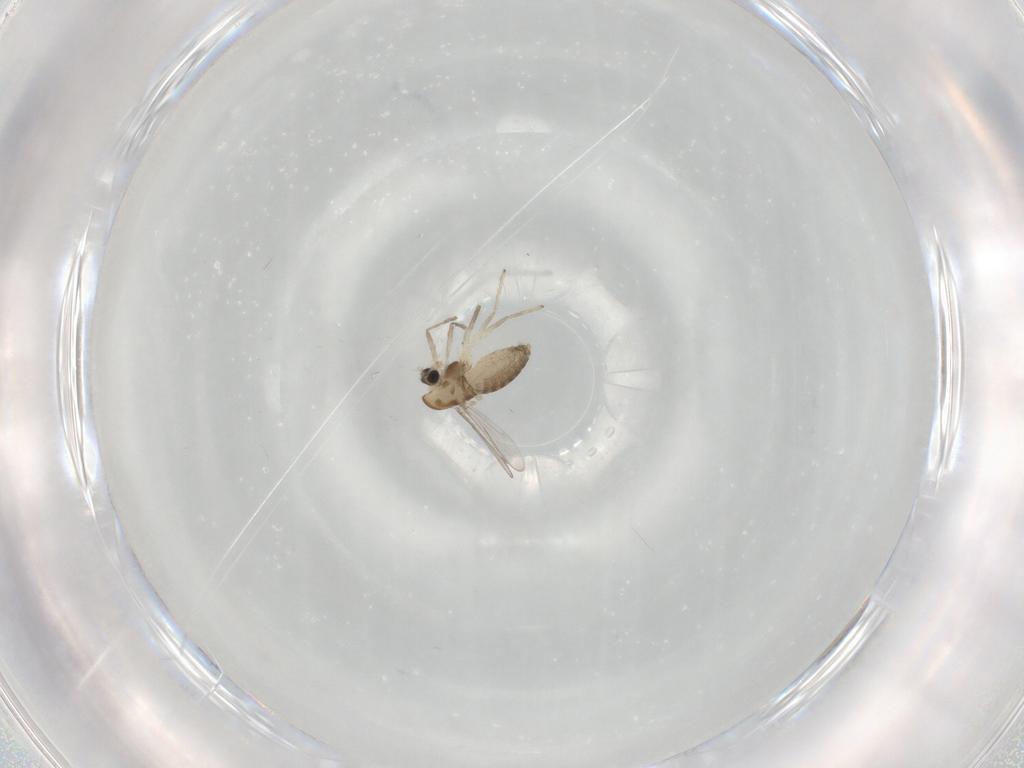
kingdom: Animalia
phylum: Arthropoda
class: Insecta
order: Diptera
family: Chironomidae
